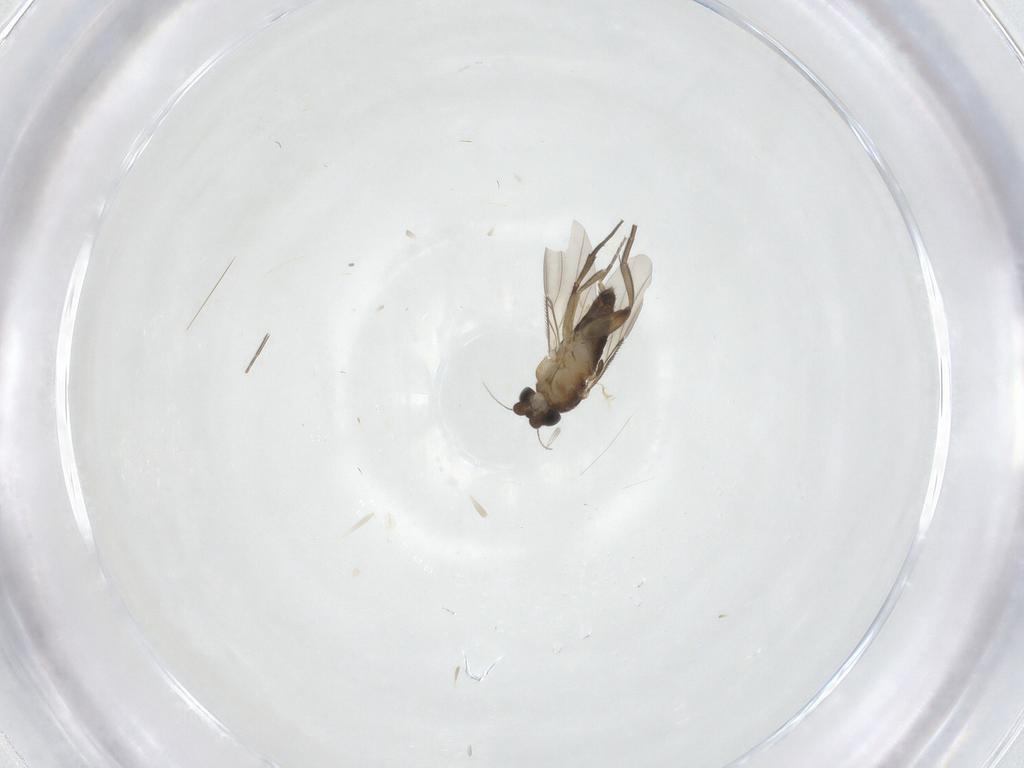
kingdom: Animalia
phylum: Arthropoda
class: Insecta
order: Diptera
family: Phoridae
